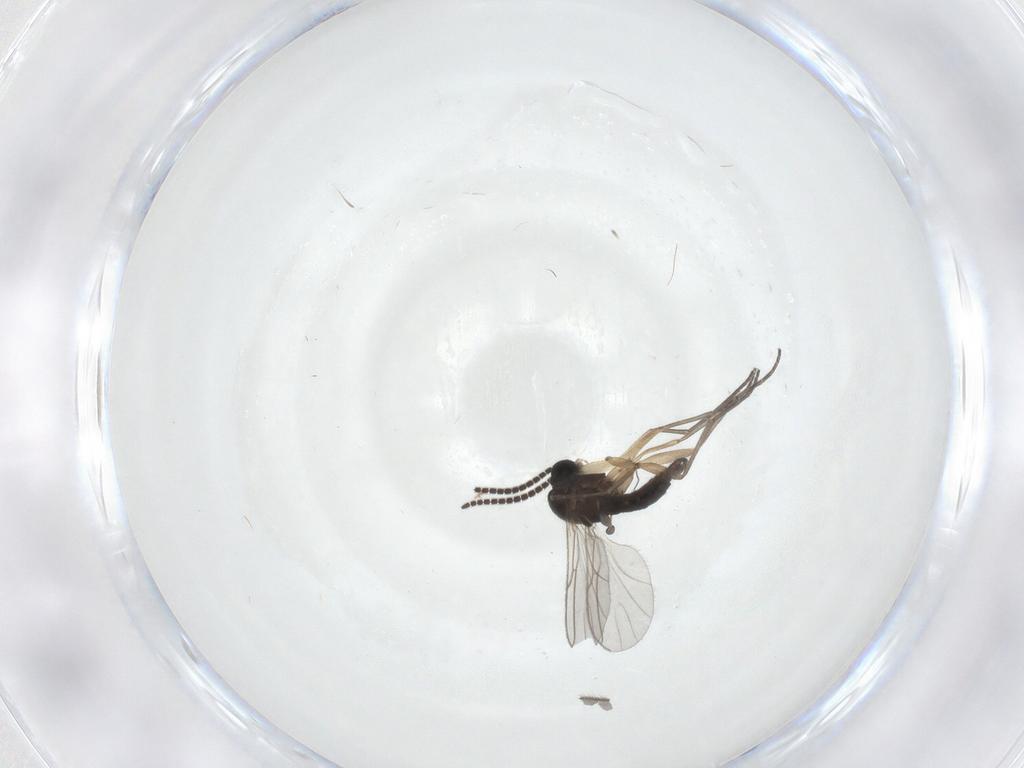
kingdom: Animalia
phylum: Arthropoda
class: Insecta
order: Diptera
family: Sciaridae
